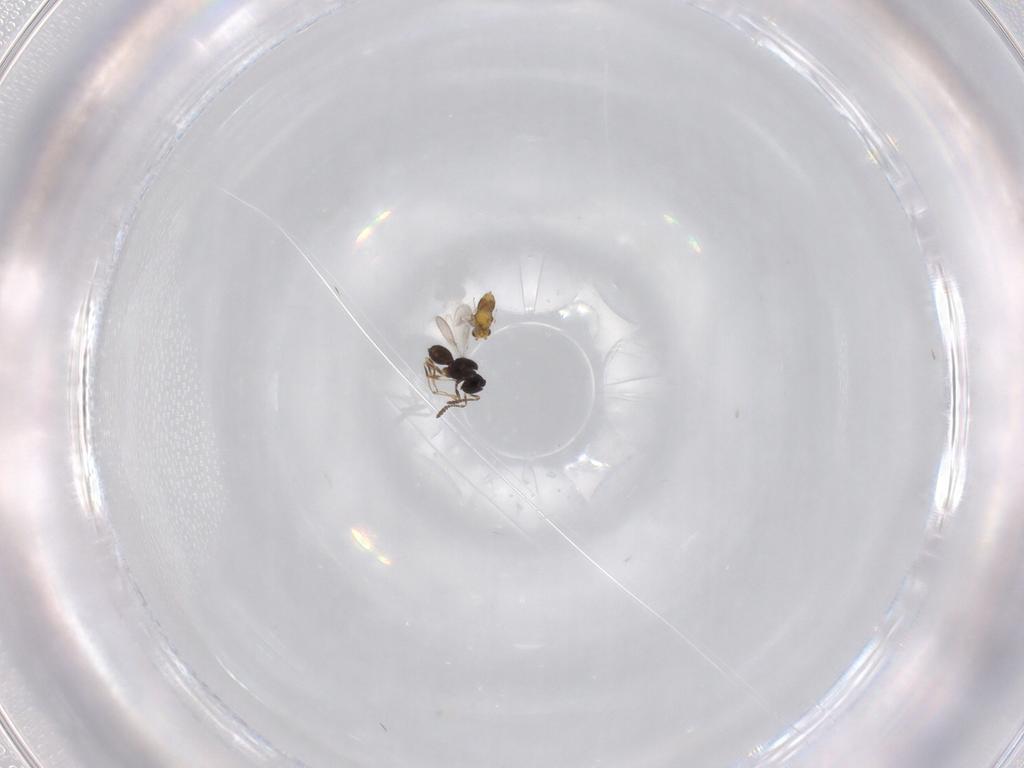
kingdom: Animalia
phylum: Arthropoda
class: Insecta
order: Hymenoptera
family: Scelionidae
